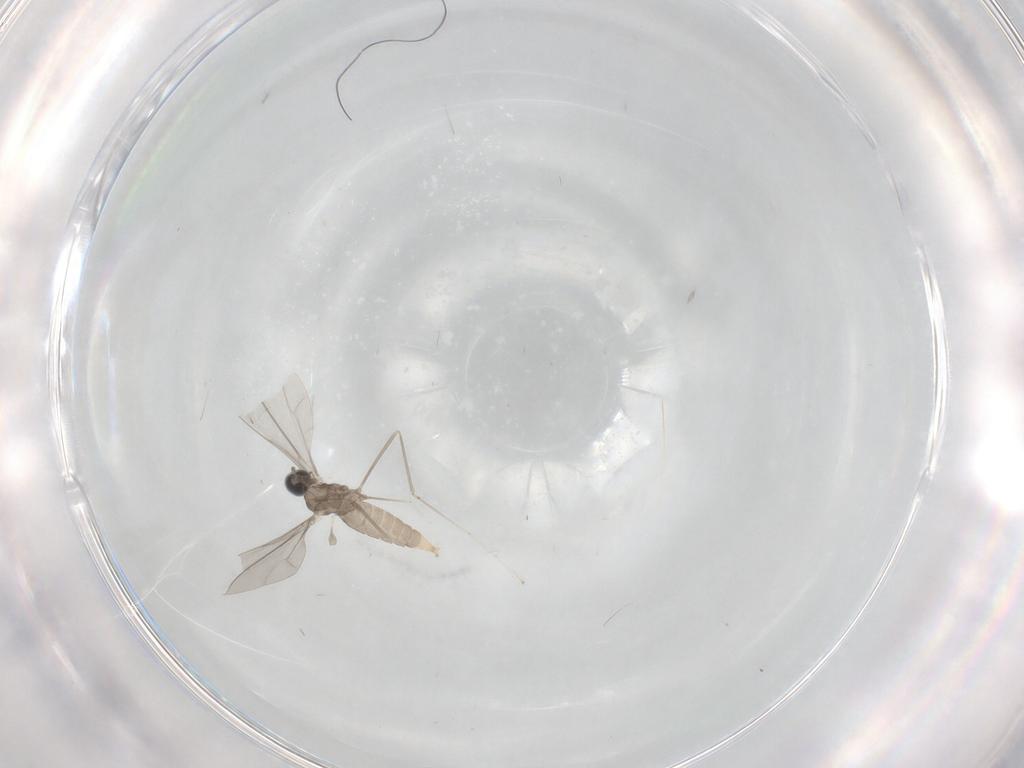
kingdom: Animalia
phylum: Arthropoda
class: Insecta
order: Diptera
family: Cecidomyiidae
